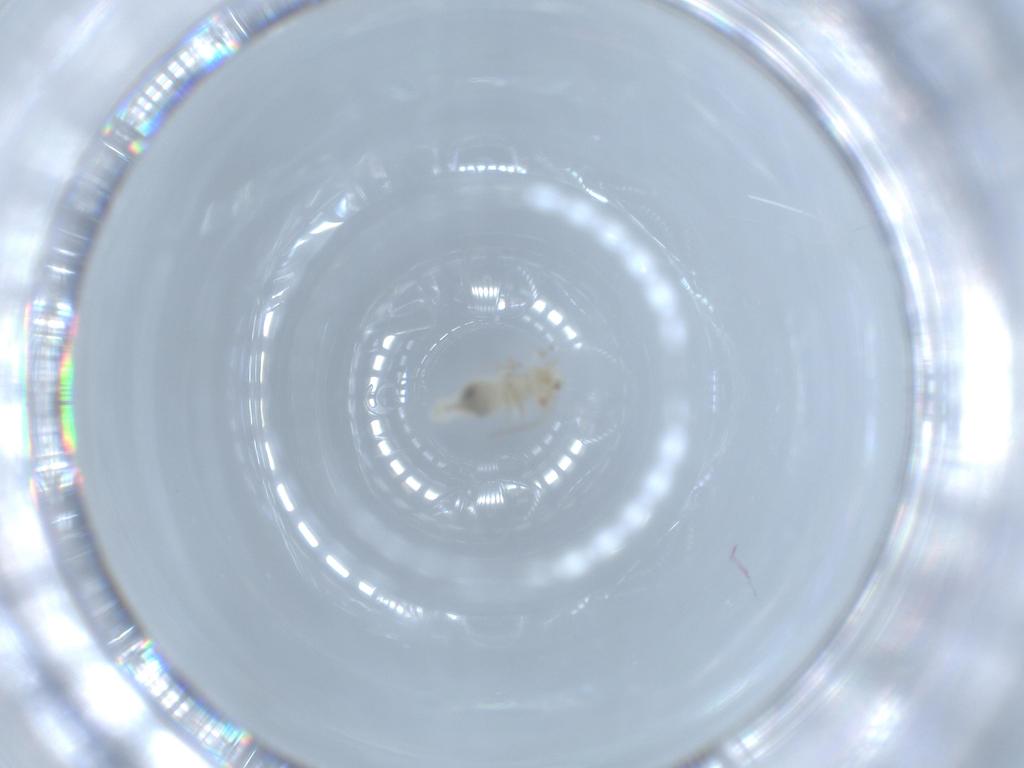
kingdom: Animalia
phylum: Arthropoda
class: Insecta
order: Psocodea
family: Caeciliusidae
